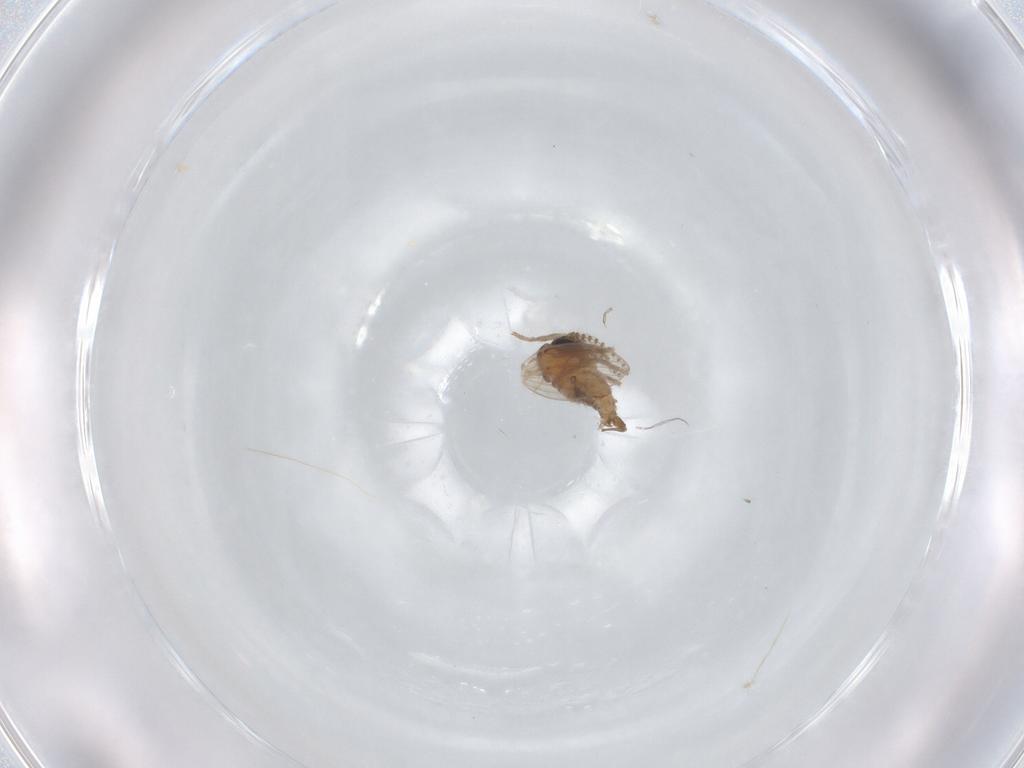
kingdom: Animalia
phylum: Arthropoda
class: Insecta
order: Diptera
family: Psychodidae
